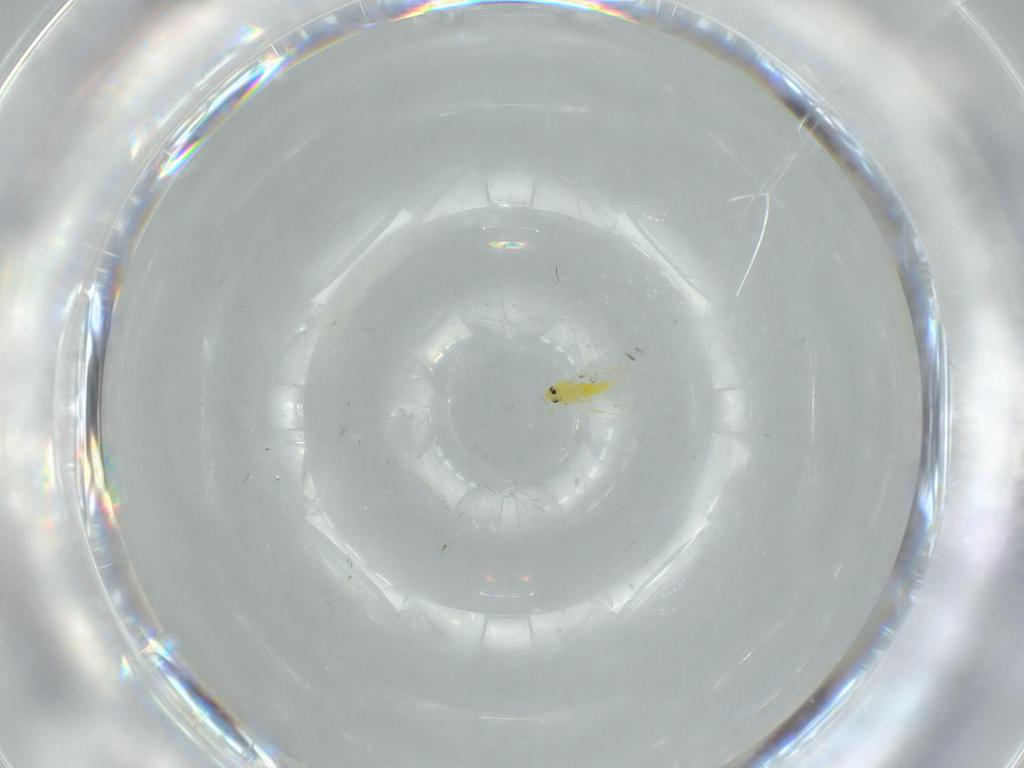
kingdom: Animalia
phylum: Arthropoda
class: Insecta
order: Hemiptera
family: Aleyrodidae
